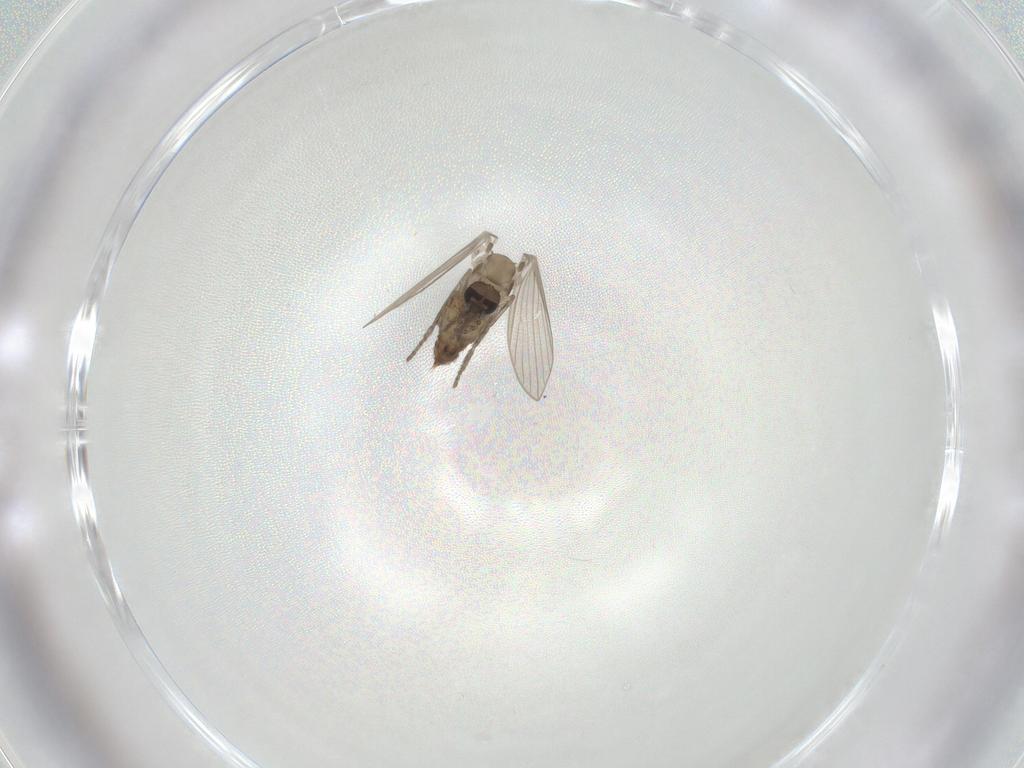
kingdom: Animalia
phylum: Arthropoda
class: Insecta
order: Diptera
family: Psychodidae
